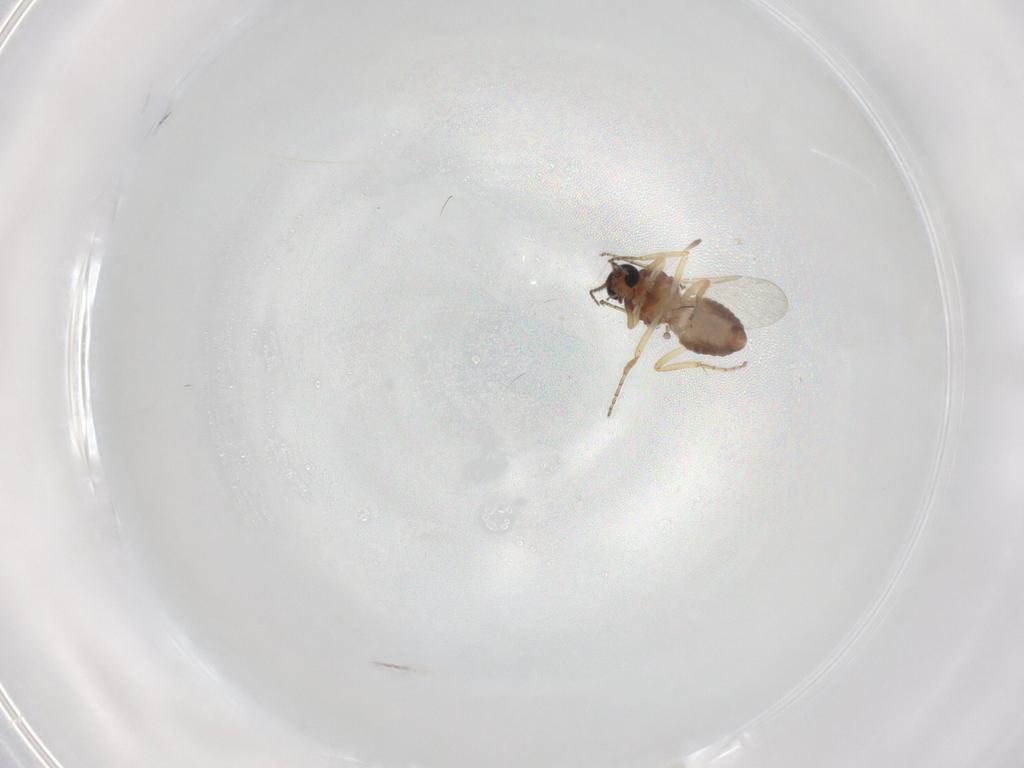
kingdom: Animalia
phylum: Arthropoda
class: Insecta
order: Diptera
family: Ceratopogonidae
